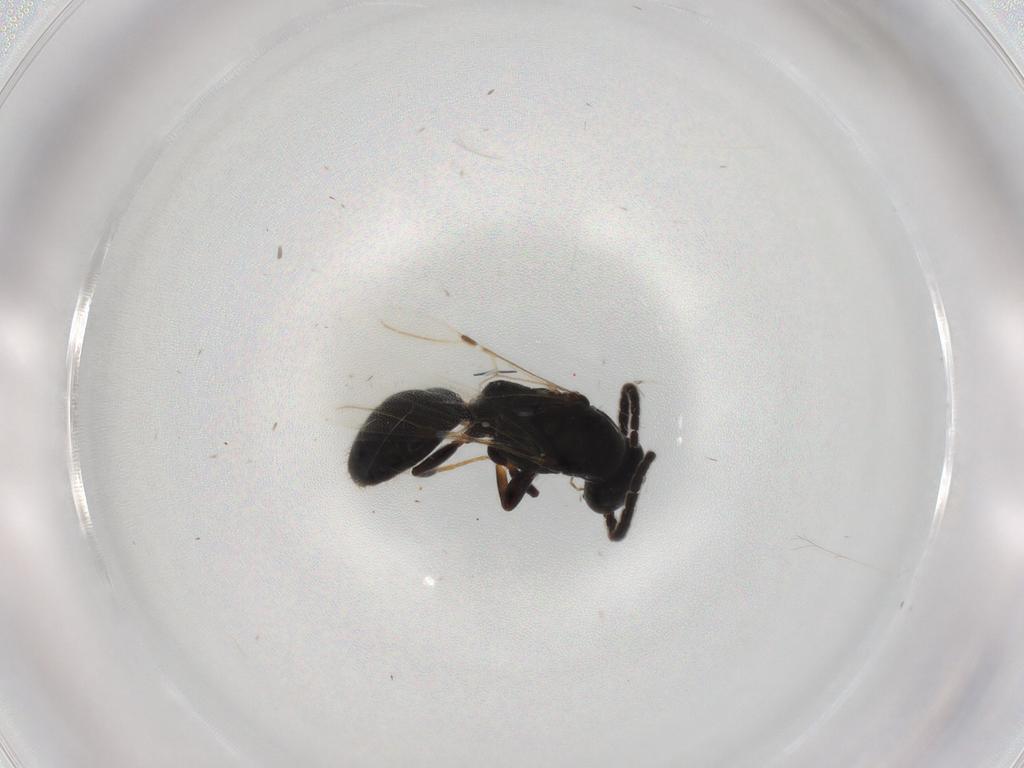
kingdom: Animalia
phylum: Arthropoda
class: Insecta
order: Hymenoptera
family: Bethylidae
